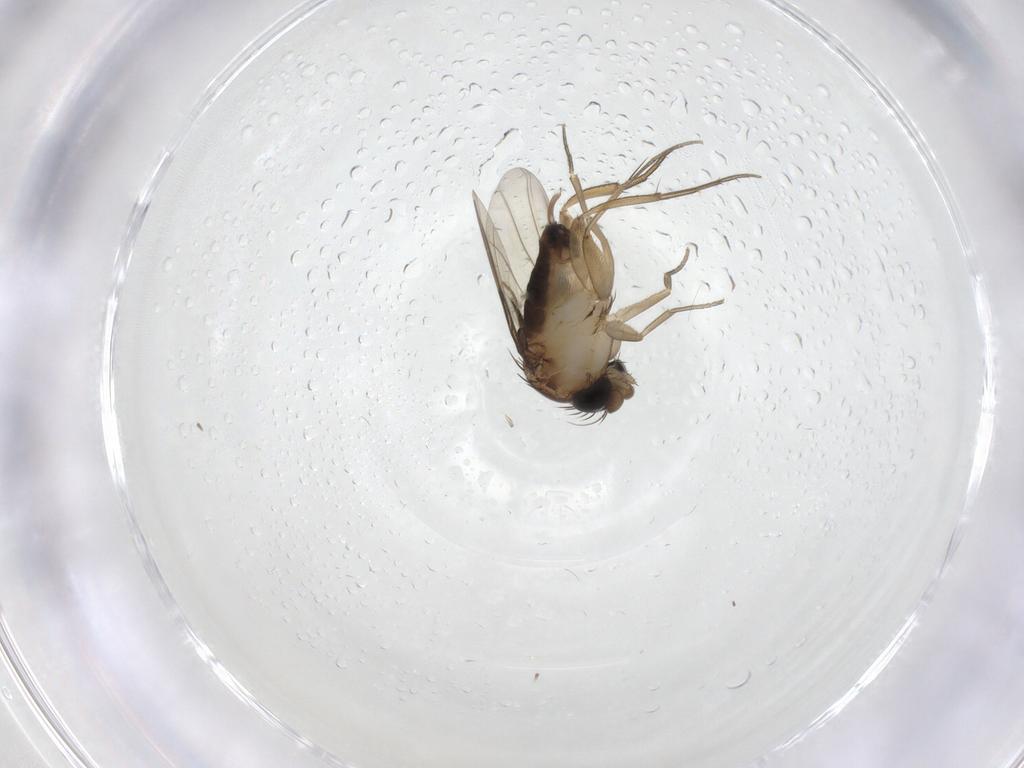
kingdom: Animalia
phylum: Arthropoda
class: Insecta
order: Diptera
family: Phoridae
